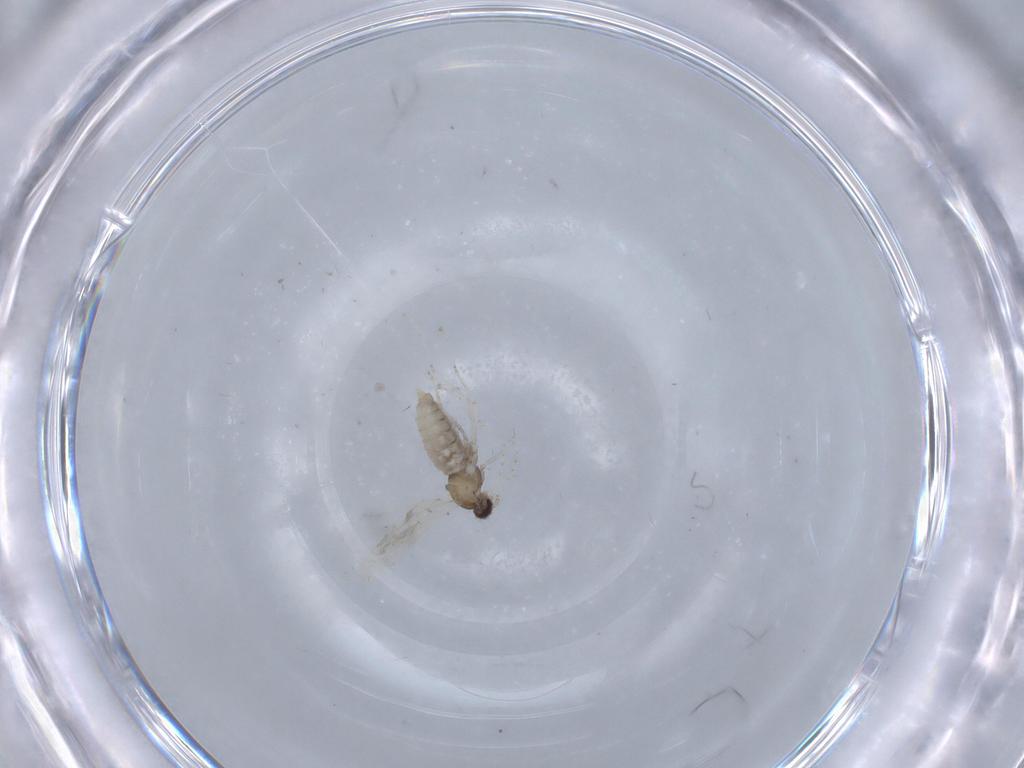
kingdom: Animalia
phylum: Arthropoda
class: Insecta
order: Diptera
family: Cecidomyiidae
